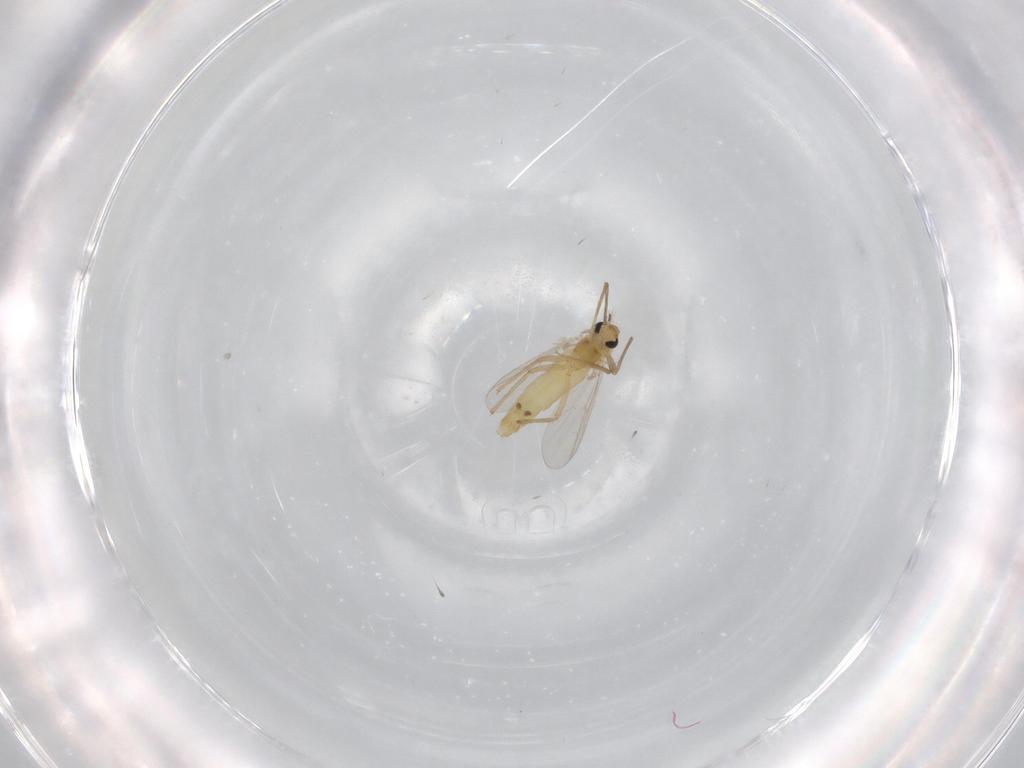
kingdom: Animalia
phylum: Arthropoda
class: Insecta
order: Diptera
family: Chironomidae
